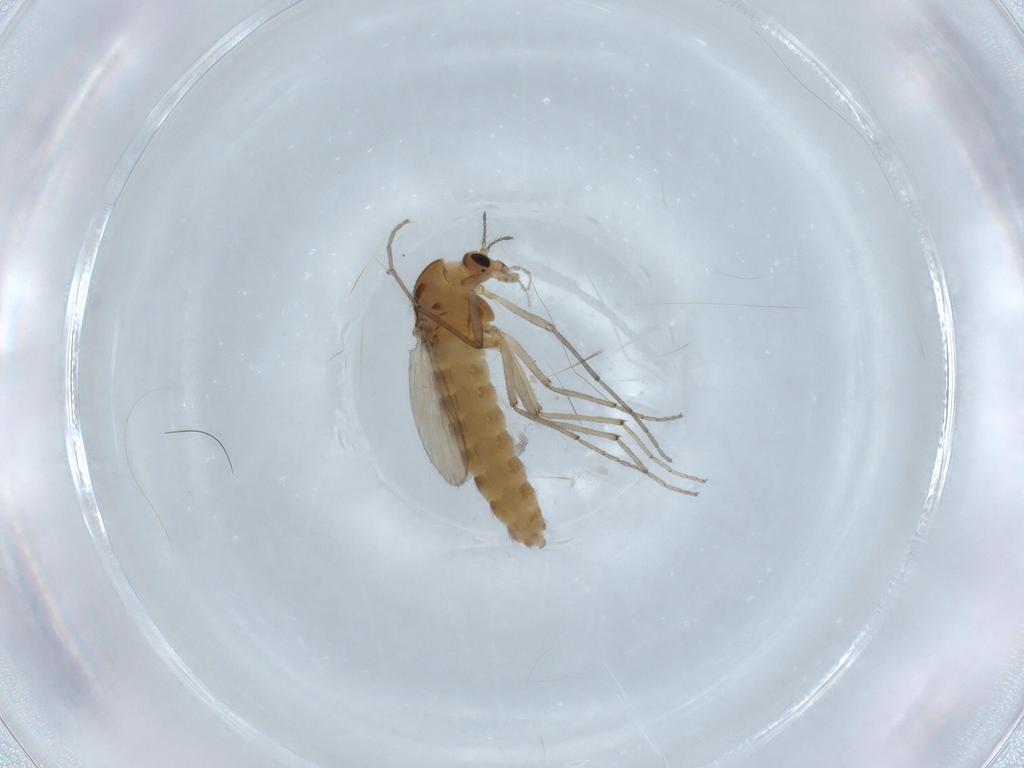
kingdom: Animalia
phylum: Arthropoda
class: Insecta
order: Diptera
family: Chironomidae
